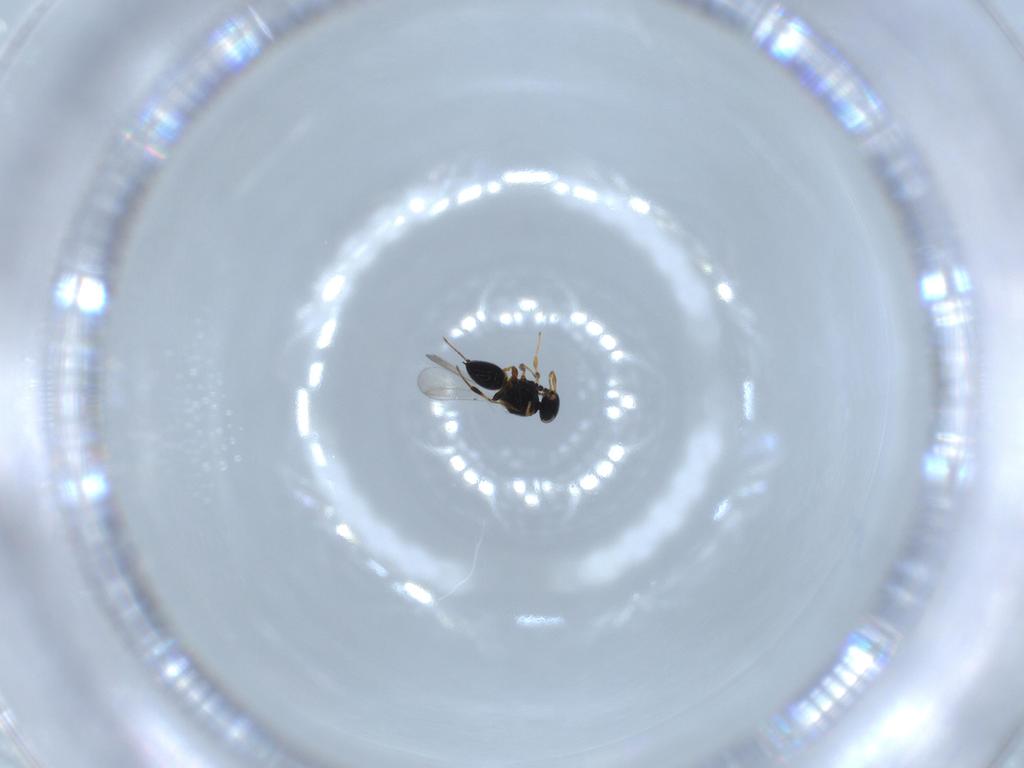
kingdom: Animalia
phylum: Arthropoda
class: Insecta
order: Hymenoptera
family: Platygastridae
